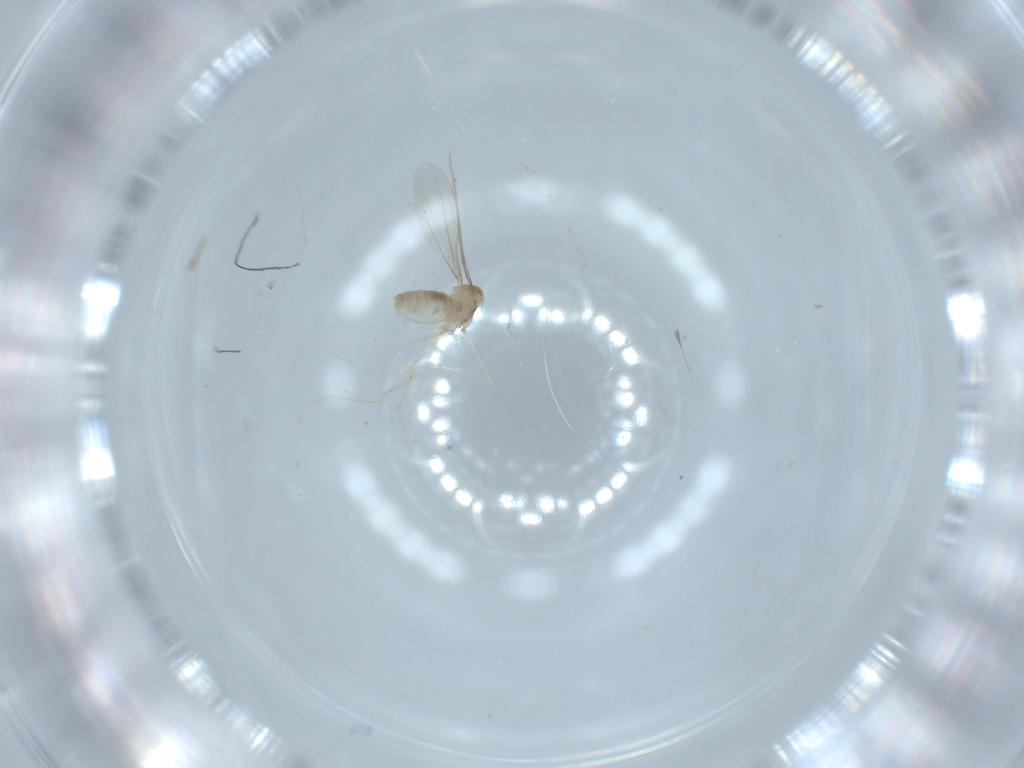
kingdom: Animalia
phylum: Arthropoda
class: Insecta
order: Diptera
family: Cecidomyiidae
